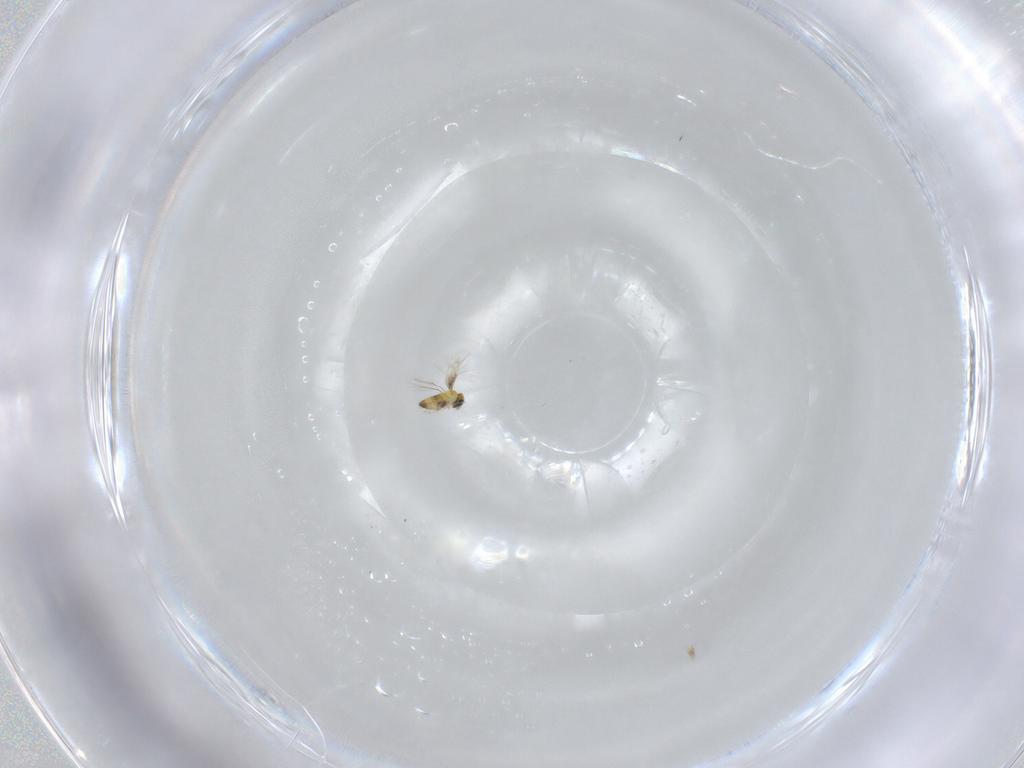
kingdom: Animalia
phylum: Arthropoda
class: Insecta
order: Hymenoptera
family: Trichogrammatidae
